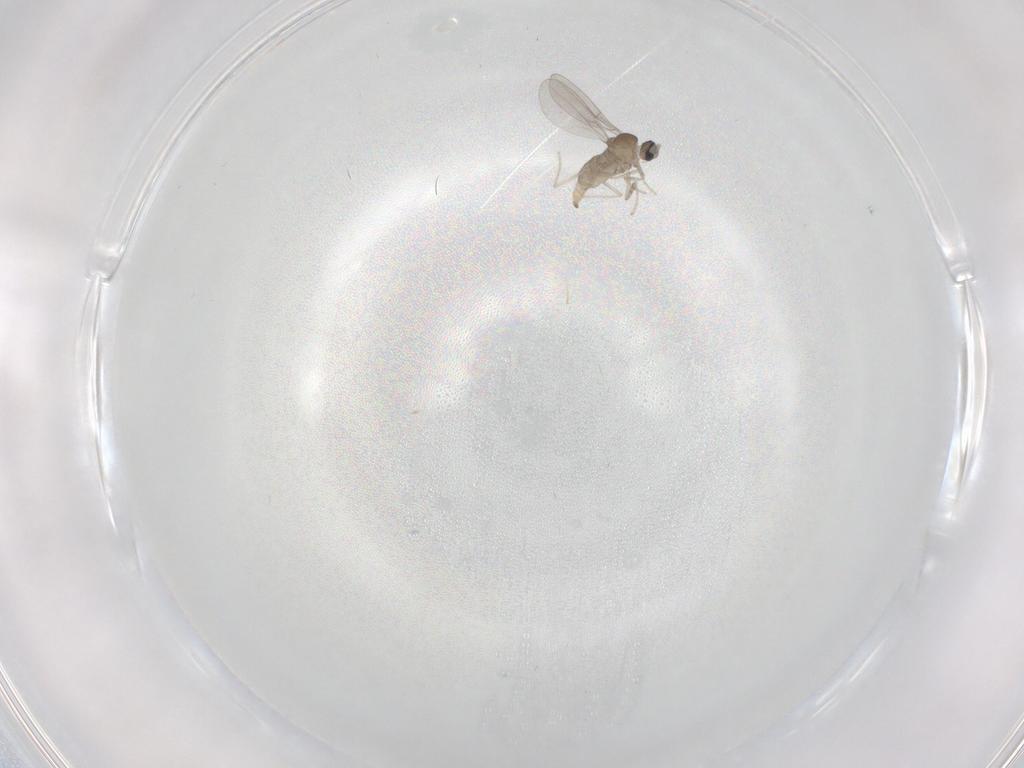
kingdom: Animalia
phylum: Arthropoda
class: Insecta
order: Diptera
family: Cecidomyiidae
